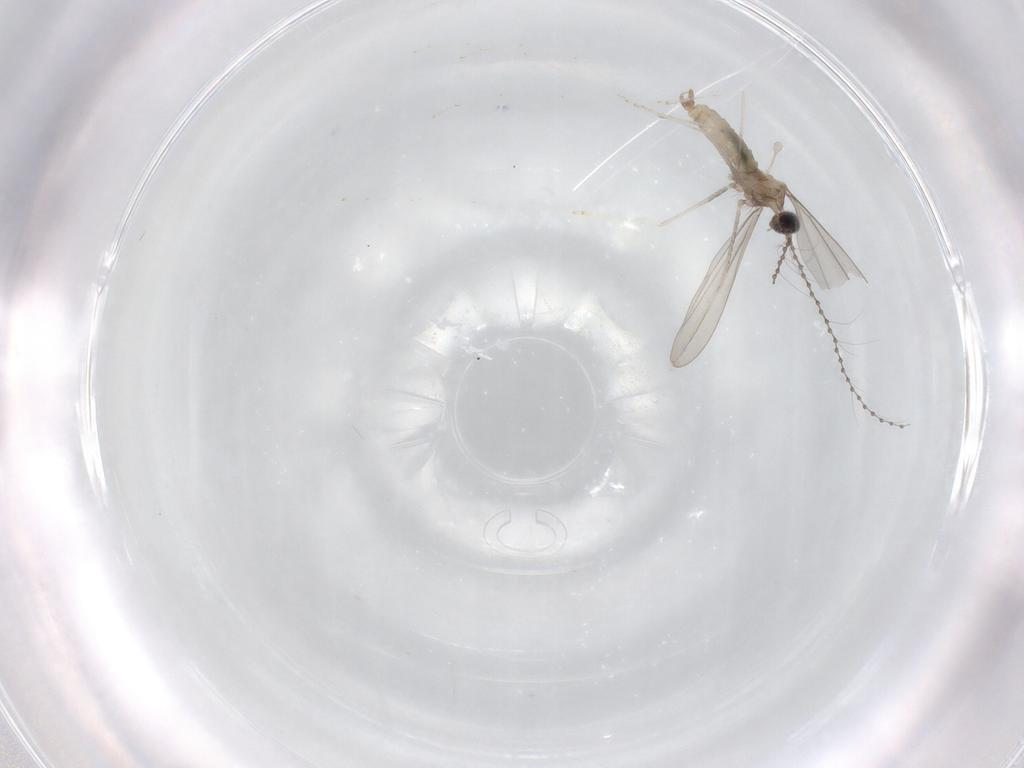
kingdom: Animalia
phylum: Arthropoda
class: Insecta
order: Diptera
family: Cecidomyiidae
